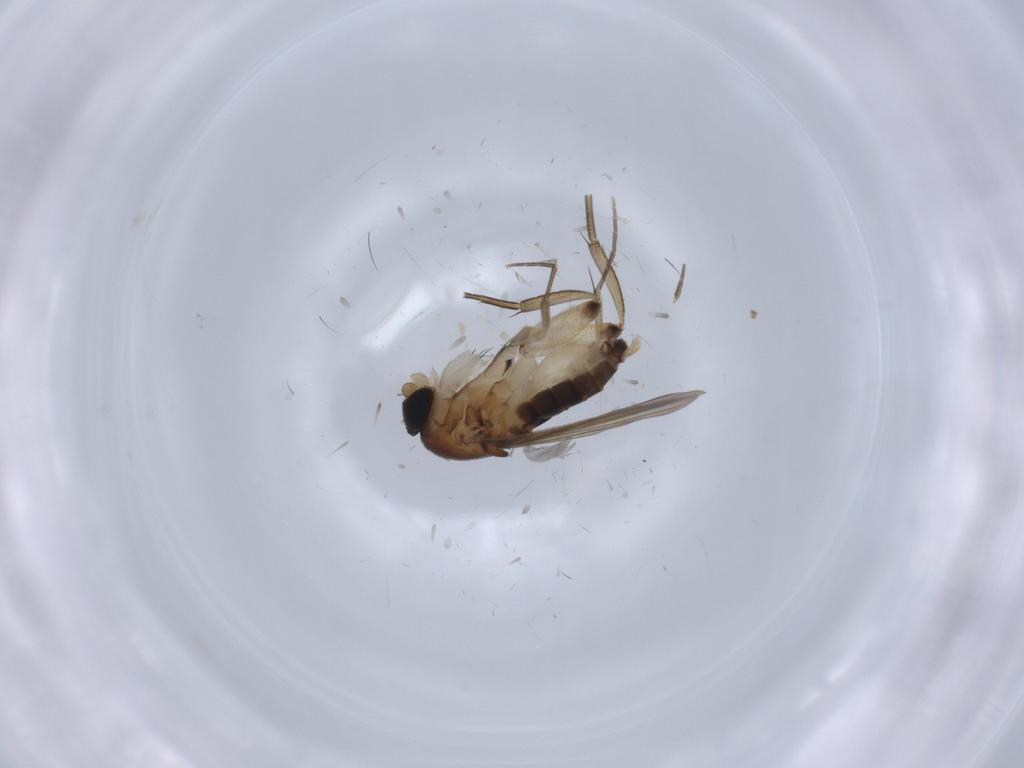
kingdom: Animalia
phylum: Arthropoda
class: Insecta
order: Diptera
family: Phoridae
